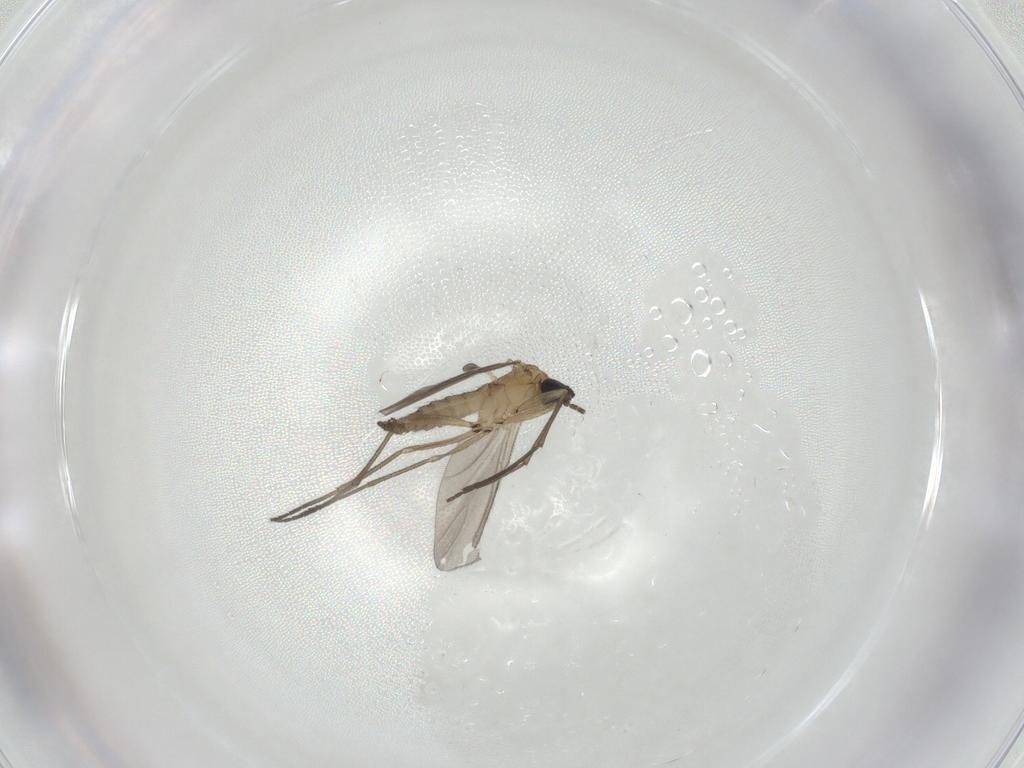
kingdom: Animalia
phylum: Arthropoda
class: Insecta
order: Diptera
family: Sciaridae
